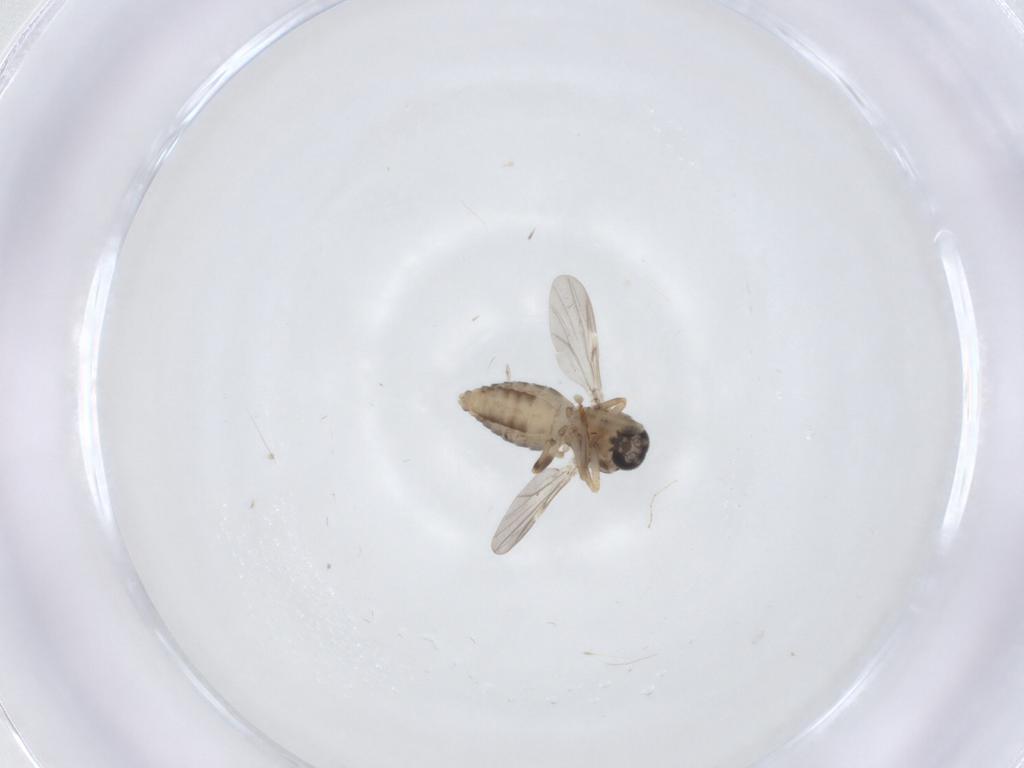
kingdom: Animalia
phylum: Arthropoda
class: Insecta
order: Diptera
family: Ceratopogonidae
